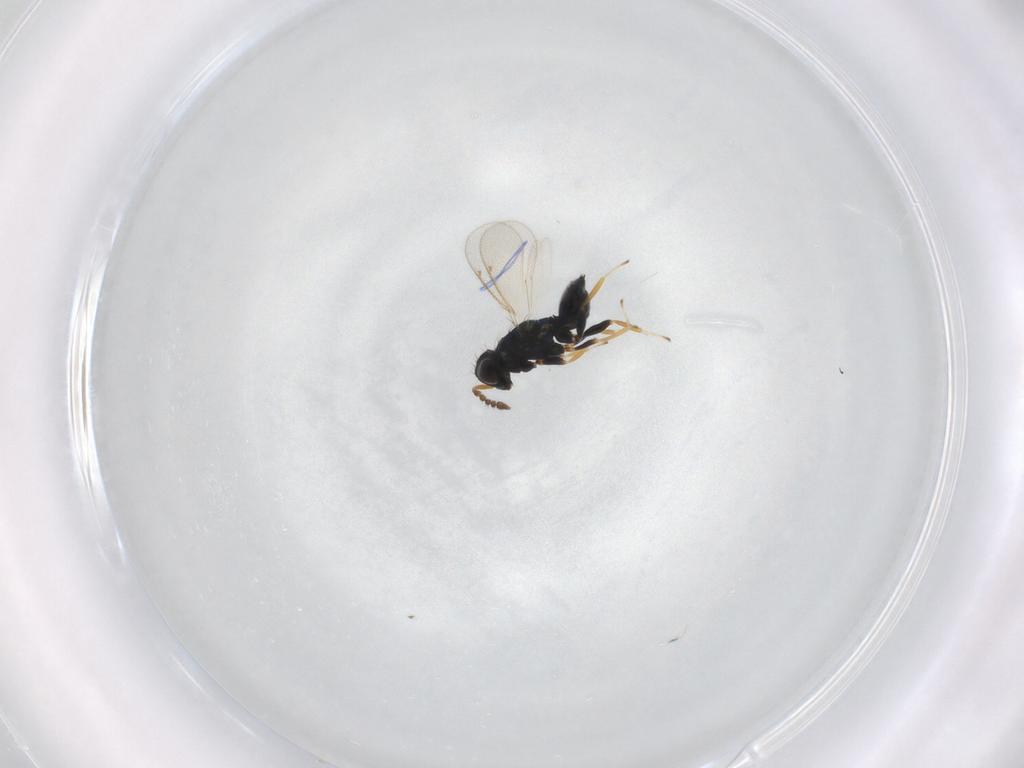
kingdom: Animalia
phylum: Arthropoda
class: Insecta
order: Hymenoptera
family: Eulophidae
